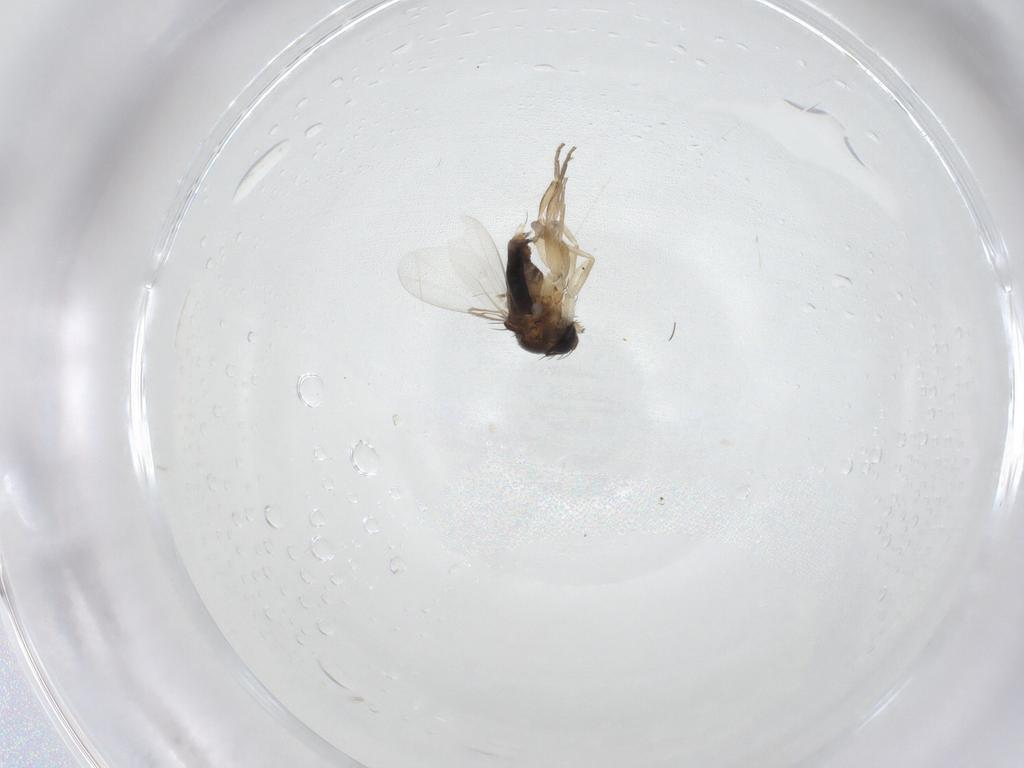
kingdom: Animalia
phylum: Arthropoda
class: Insecta
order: Diptera
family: Phoridae
